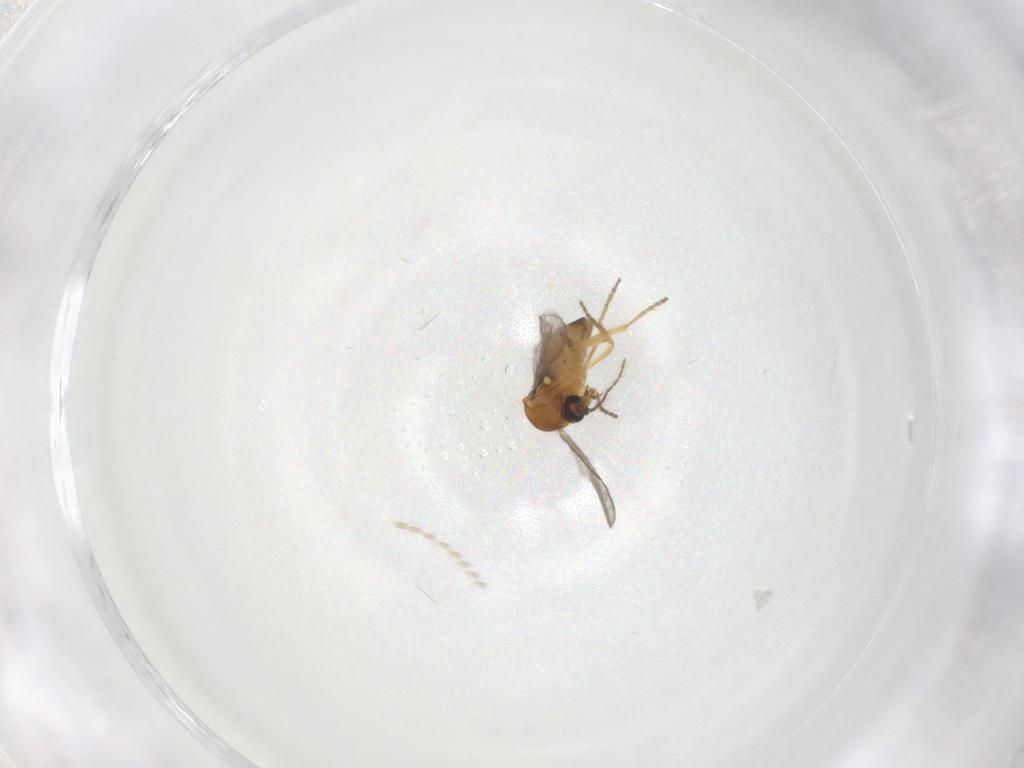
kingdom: Animalia
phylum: Arthropoda
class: Insecta
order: Diptera
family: Ceratopogonidae
